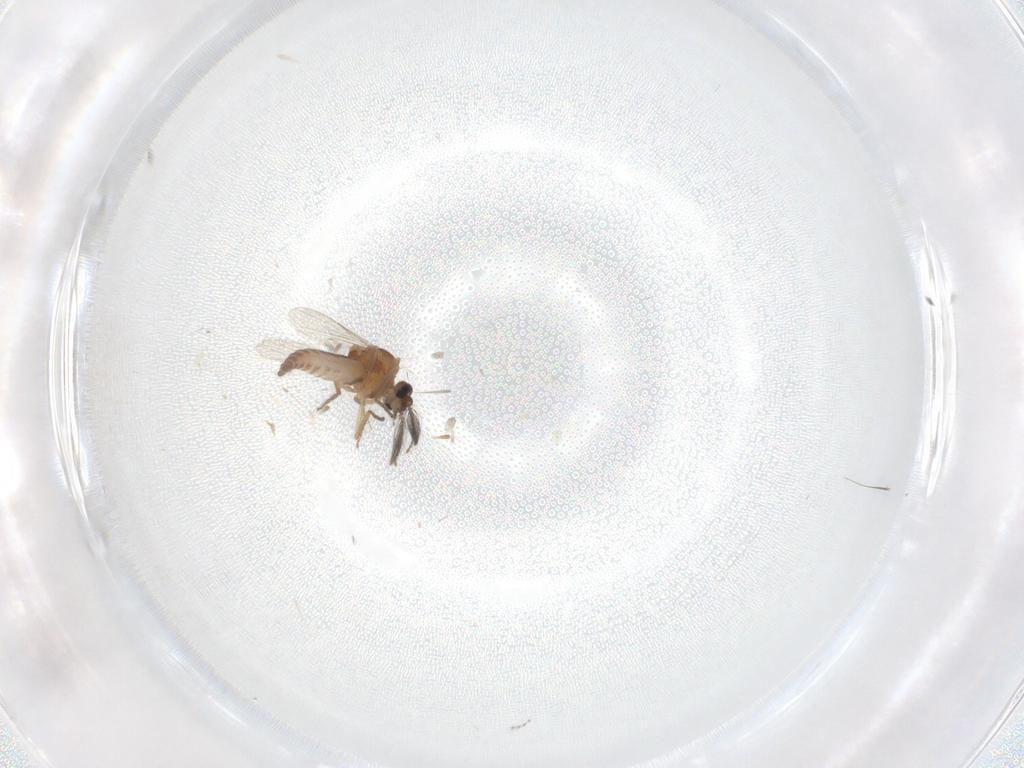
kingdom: Animalia
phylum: Arthropoda
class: Insecta
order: Diptera
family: Ceratopogonidae
